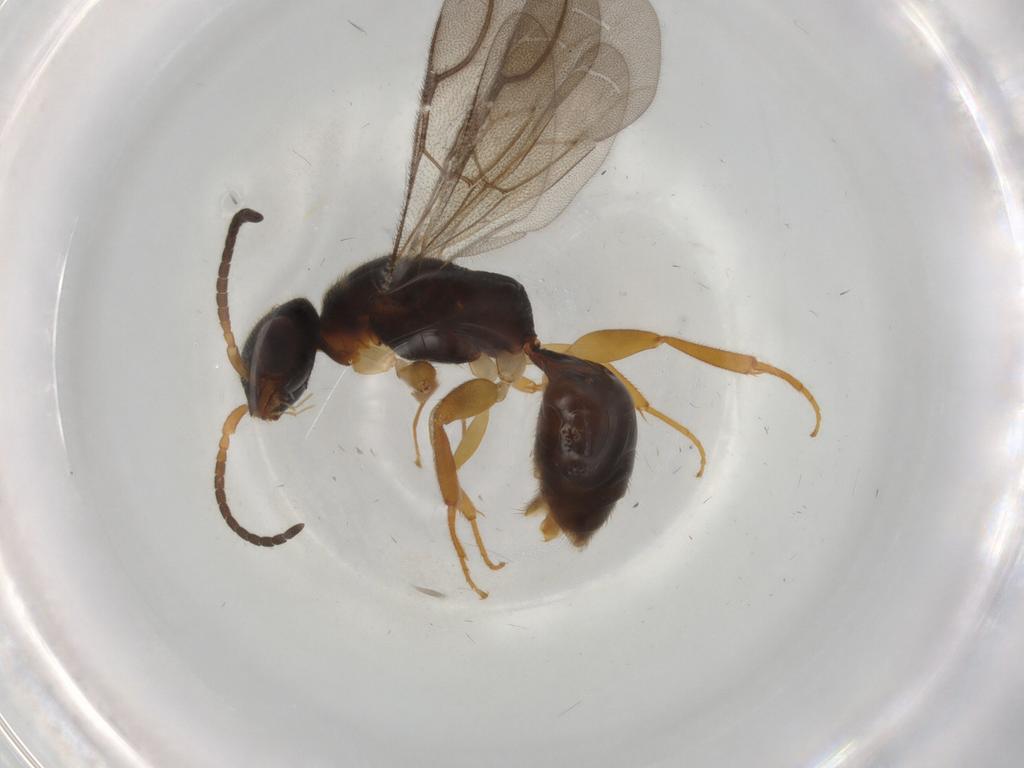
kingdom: Animalia
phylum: Arthropoda
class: Insecta
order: Hymenoptera
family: Bethylidae
